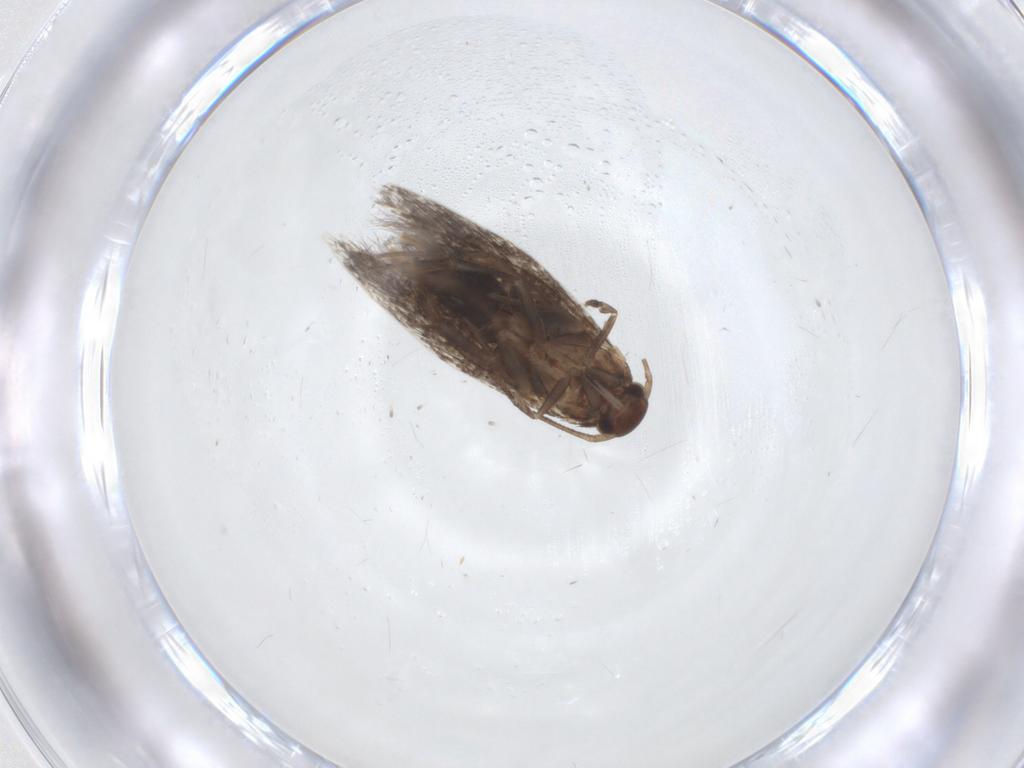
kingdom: Animalia
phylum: Arthropoda
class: Insecta
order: Lepidoptera
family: Elachistidae
